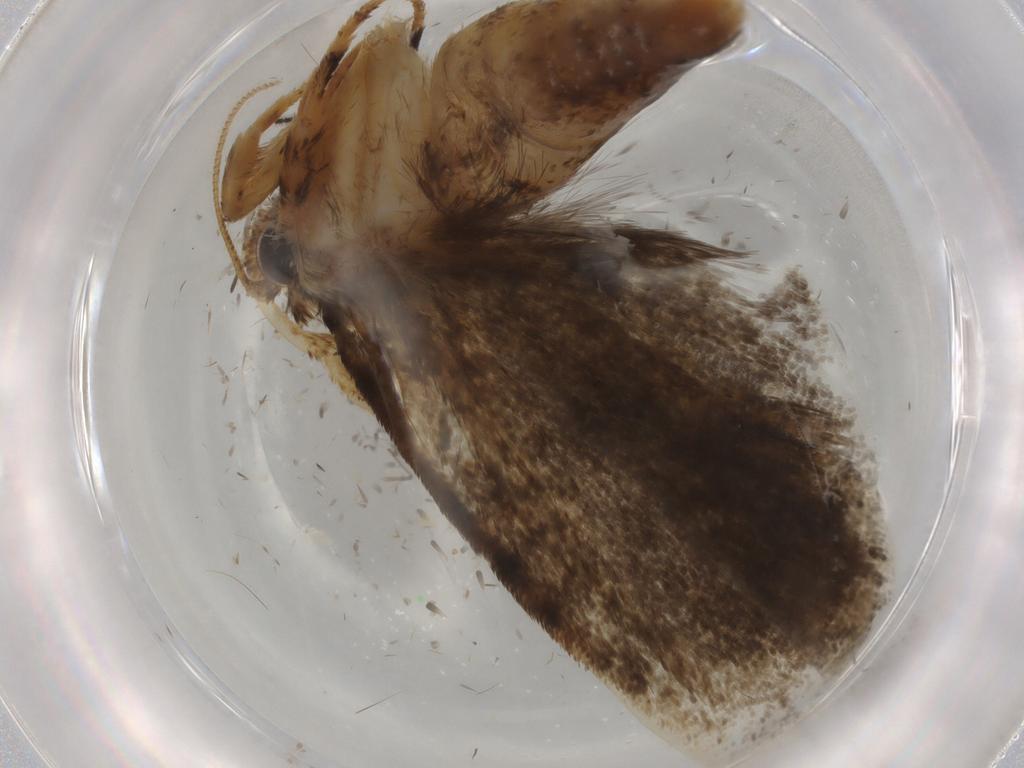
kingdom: Animalia
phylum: Arthropoda
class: Insecta
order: Lepidoptera
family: Tineidae
